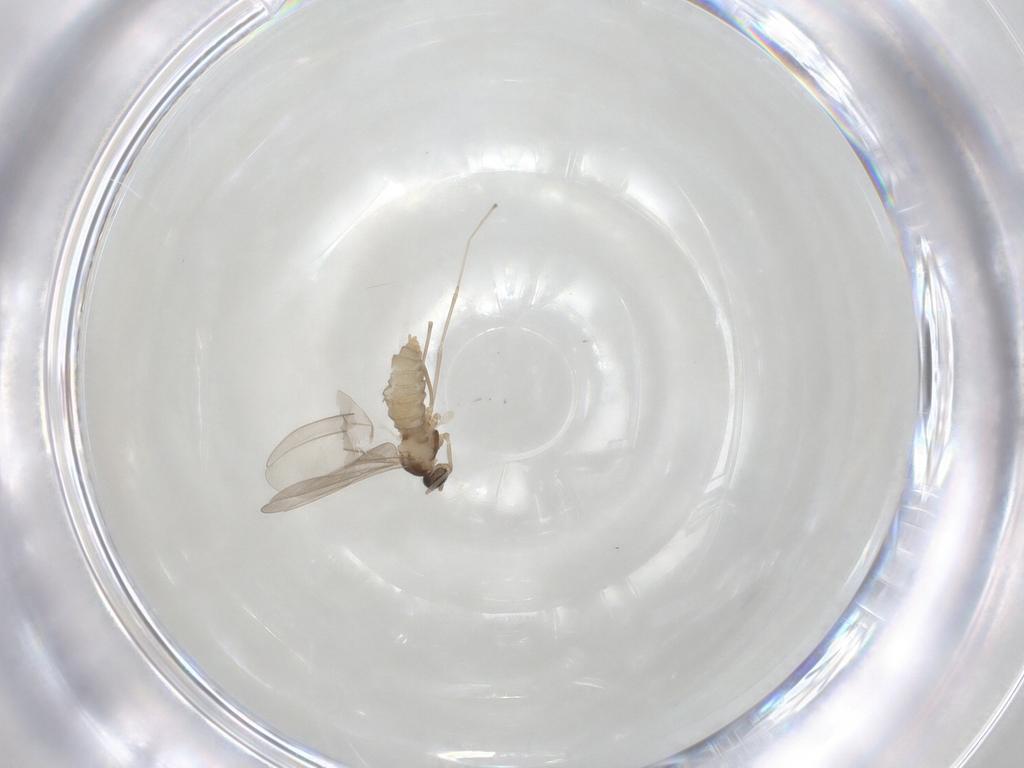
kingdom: Animalia
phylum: Arthropoda
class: Insecta
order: Diptera
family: Cecidomyiidae
